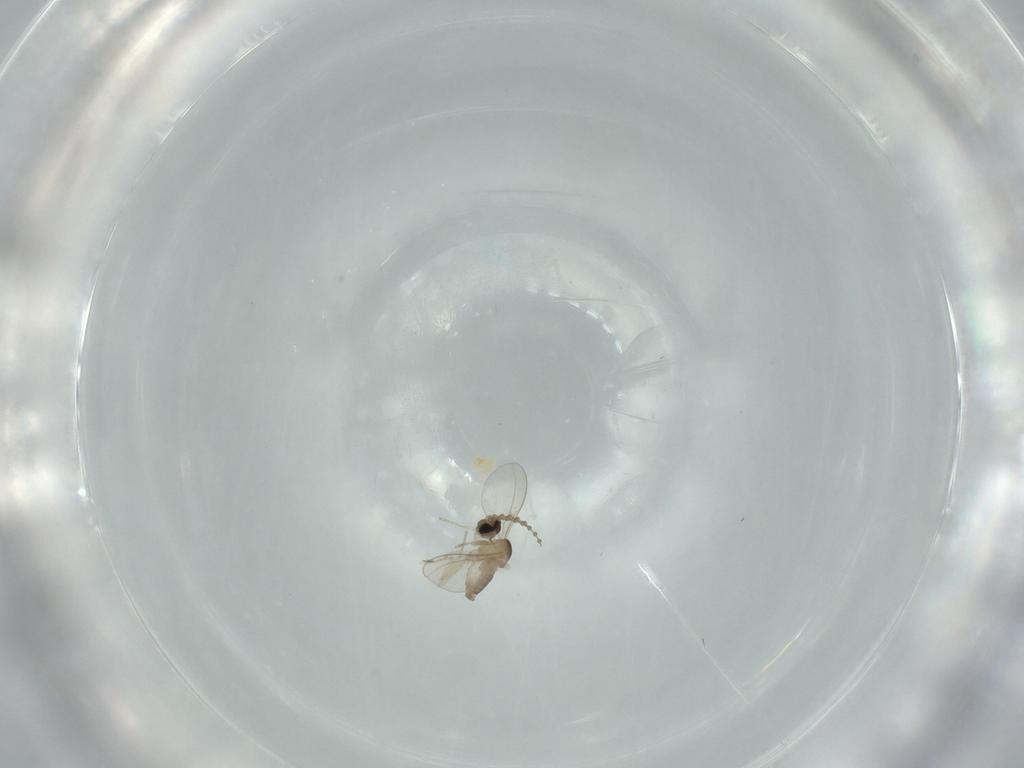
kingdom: Animalia
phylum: Arthropoda
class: Insecta
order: Diptera
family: Cecidomyiidae
